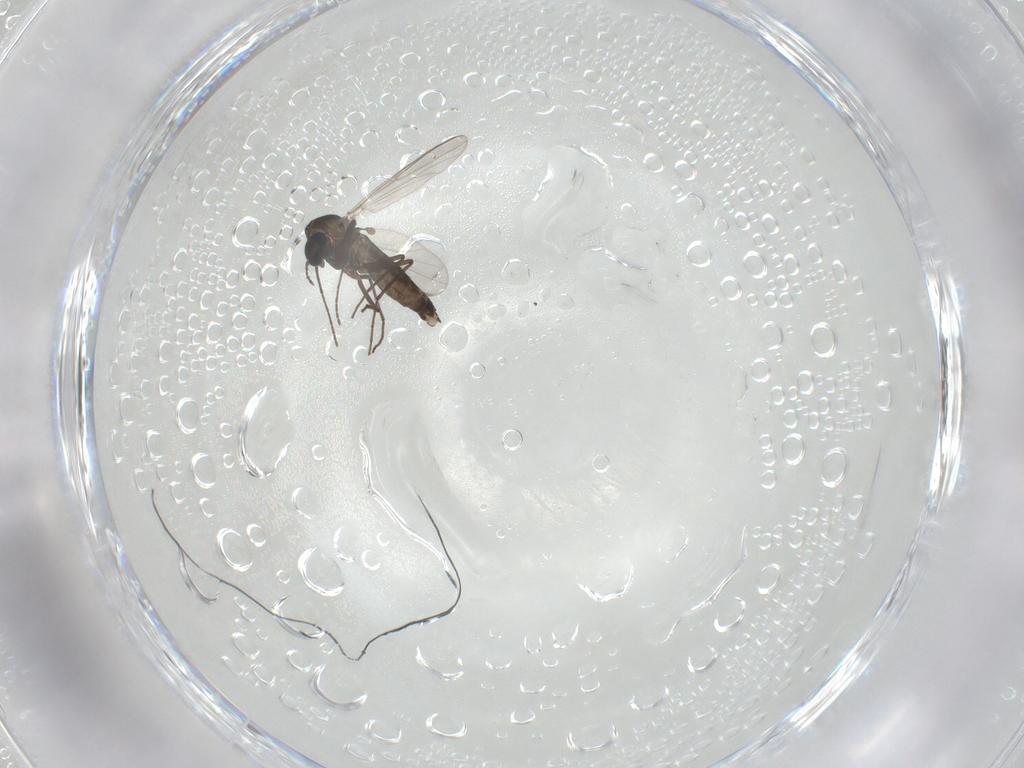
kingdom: Animalia
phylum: Arthropoda
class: Insecta
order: Diptera
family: Chironomidae
